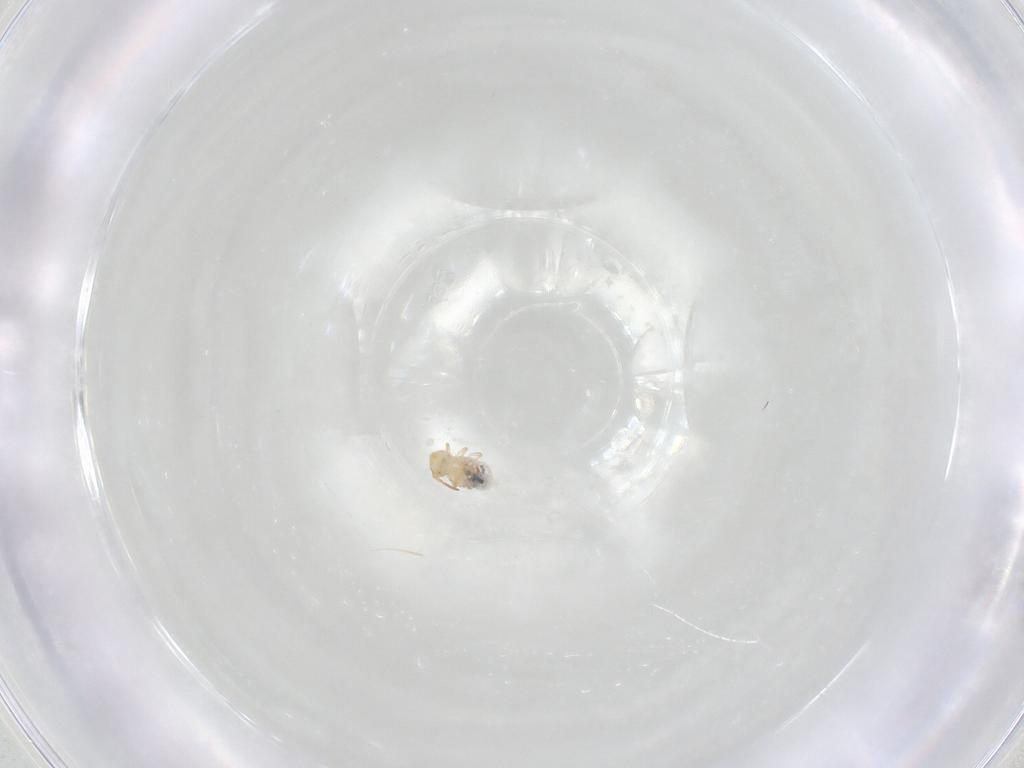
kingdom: Animalia
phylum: Arthropoda
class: Collembola
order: Symphypleona
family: Bourletiellidae
